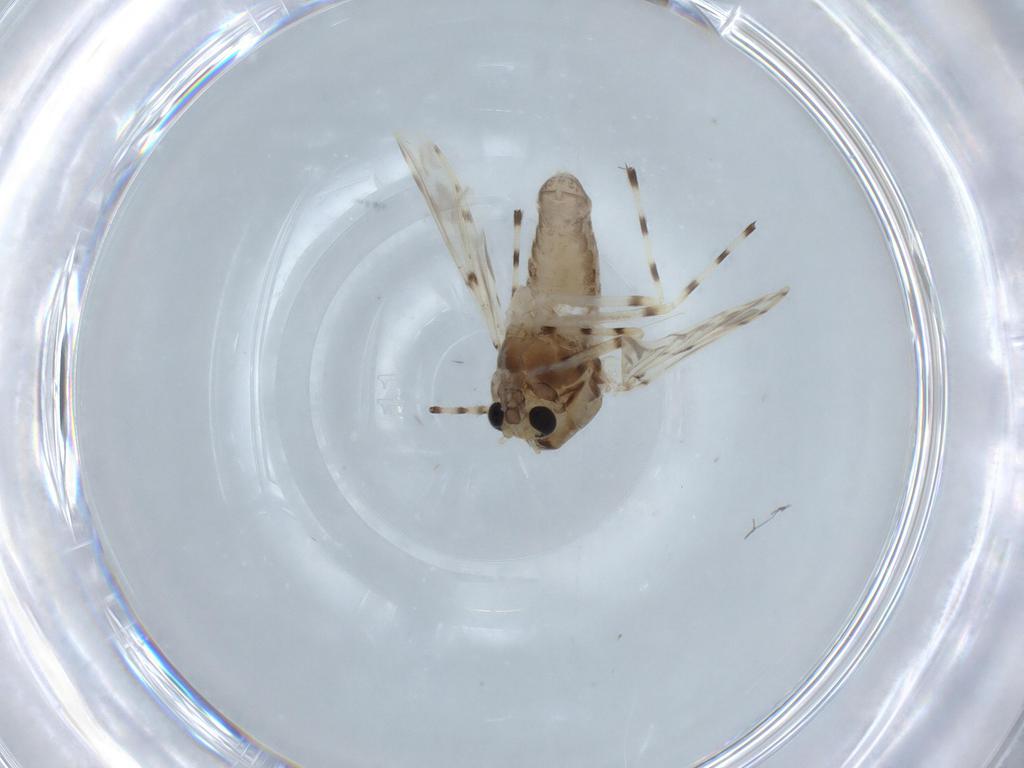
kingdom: Animalia
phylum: Arthropoda
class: Insecta
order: Diptera
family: Chironomidae
